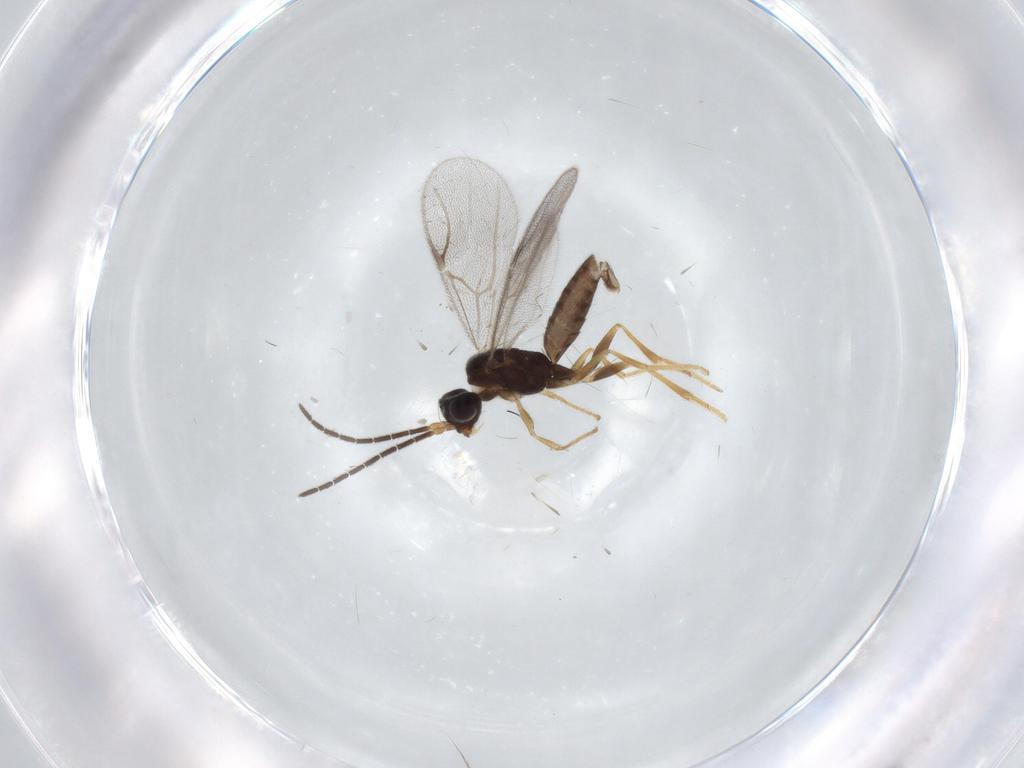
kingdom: Animalia
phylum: Arthropoda
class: Insecta
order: Hymenoptera
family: Dryinidae
